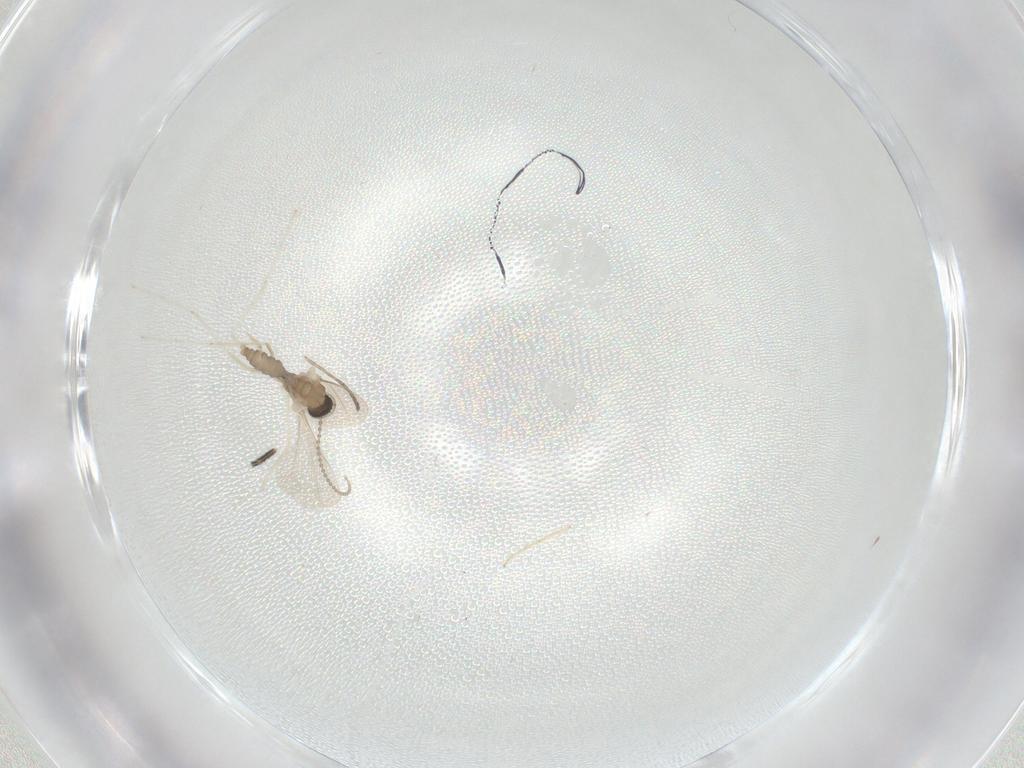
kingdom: Animalia
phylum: Arthropoda
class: Insecta
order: Diptera
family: Cecidomyiidae
